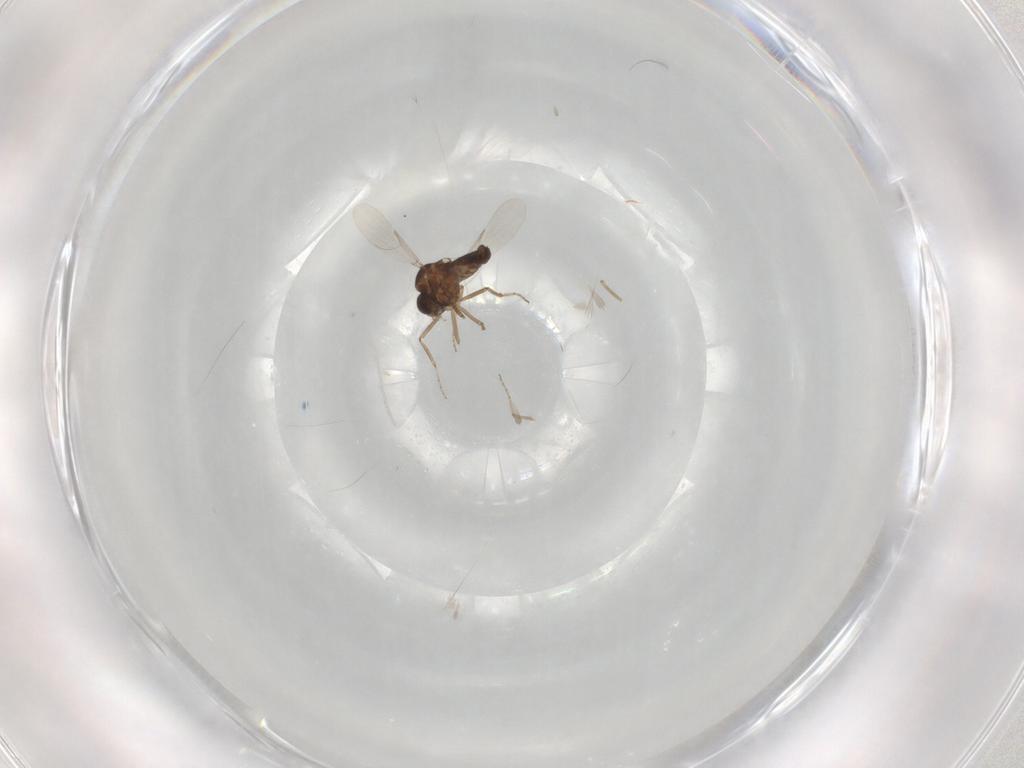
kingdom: Animalia
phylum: Arthropoda
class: Insecta
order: Diptera
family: Ceratopogonidae
